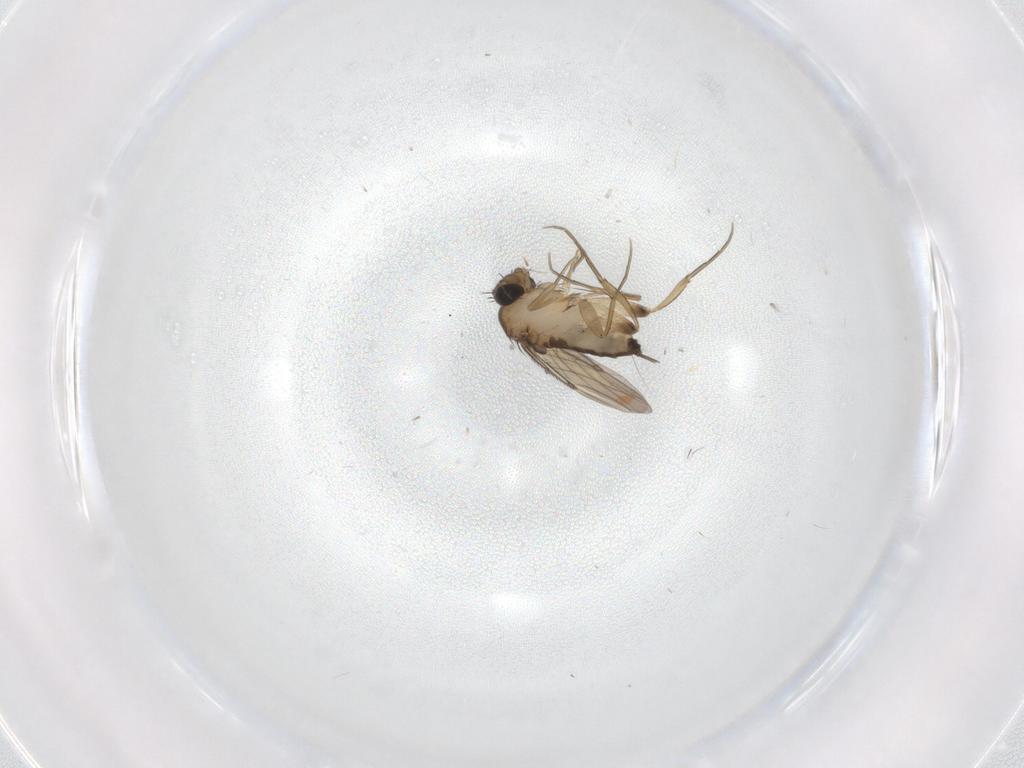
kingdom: Animalia
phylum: Arthropoda
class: Insecta
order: Diptera
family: Phoridae
